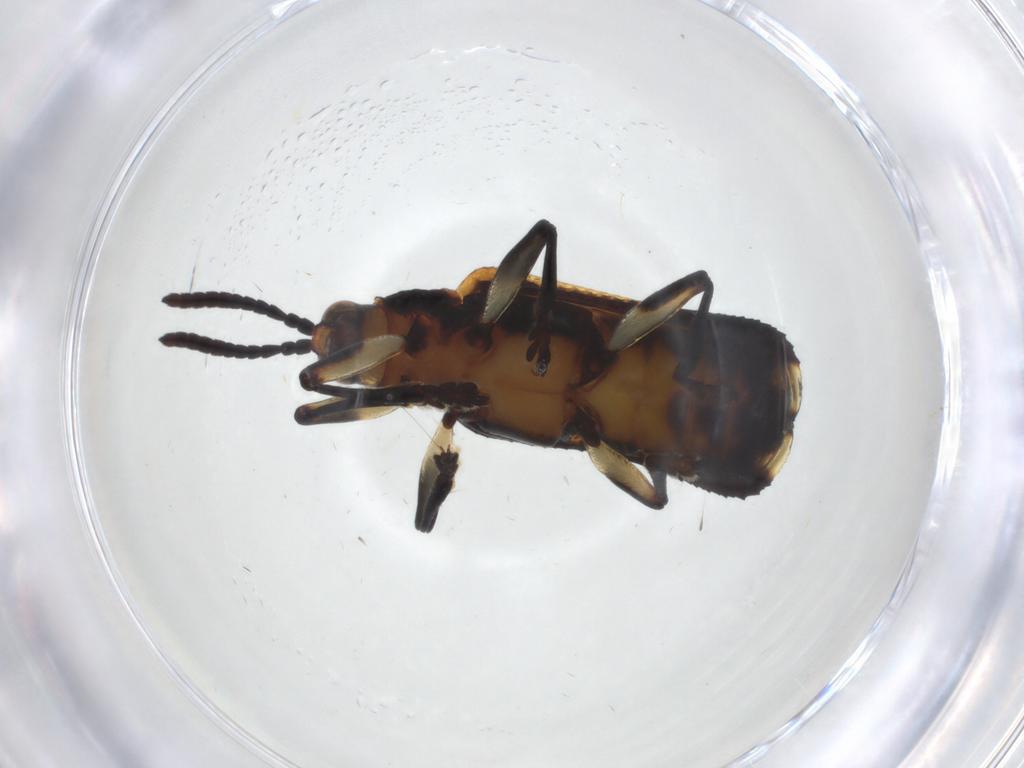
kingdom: Animalia
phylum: Arthropoda
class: Insecta
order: Coleoptera
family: Chrysomelidae
